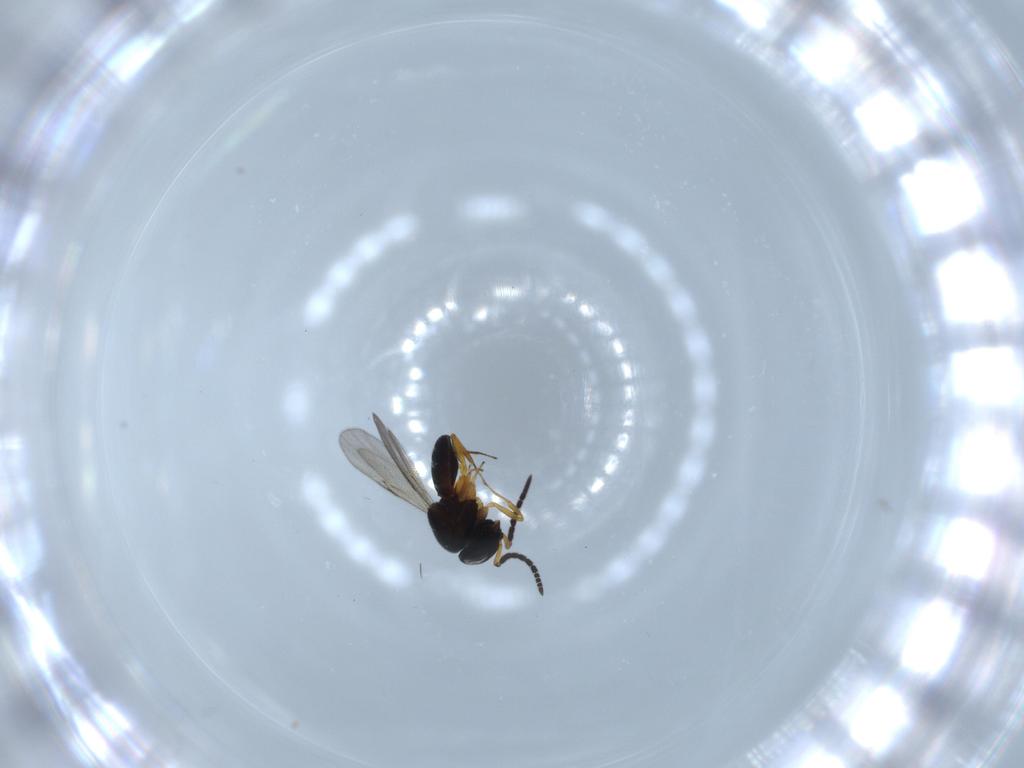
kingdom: Animalia
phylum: Arthropoda
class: Insecta
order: Coleoptera
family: Curculionidae
